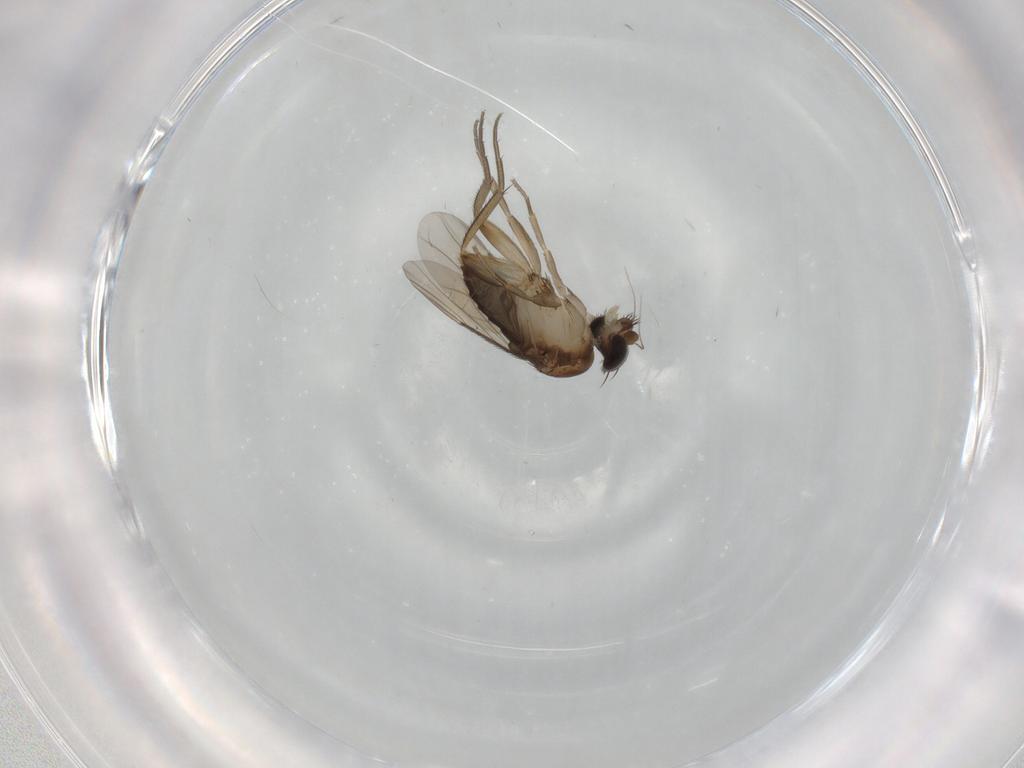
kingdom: Animalia
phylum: Arthropoda
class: Insecta
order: Diptera
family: Phoridae
